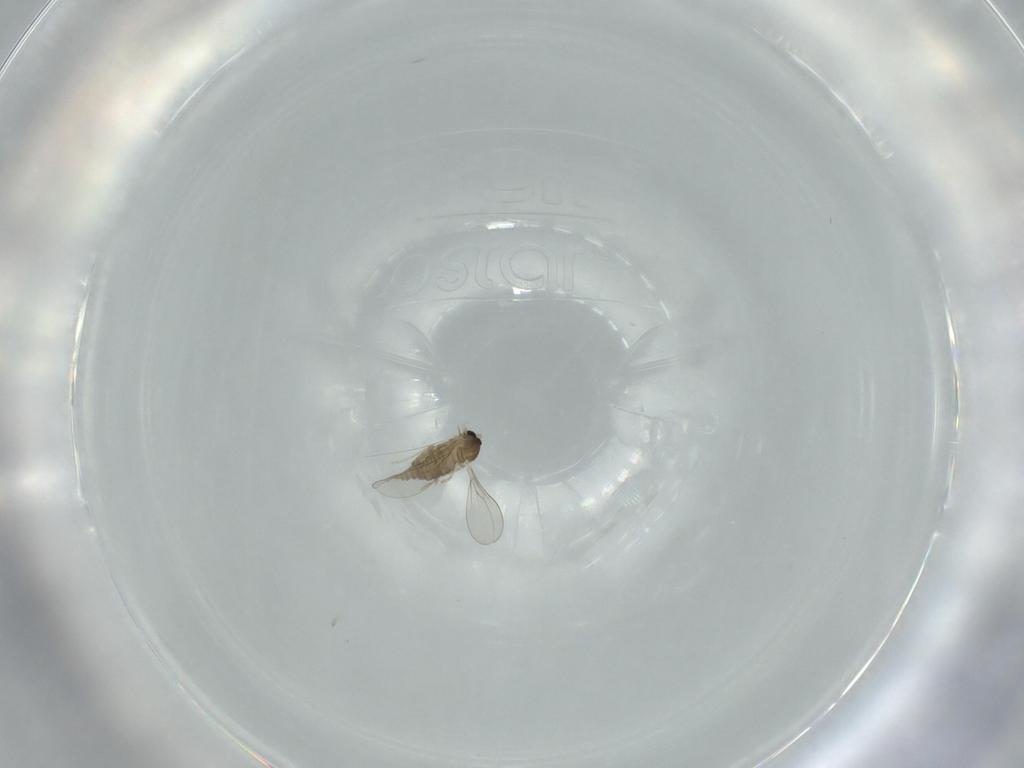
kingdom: Animalia
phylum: Arthropoda
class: Insecta
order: Diptera
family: Cecidomyiidae
